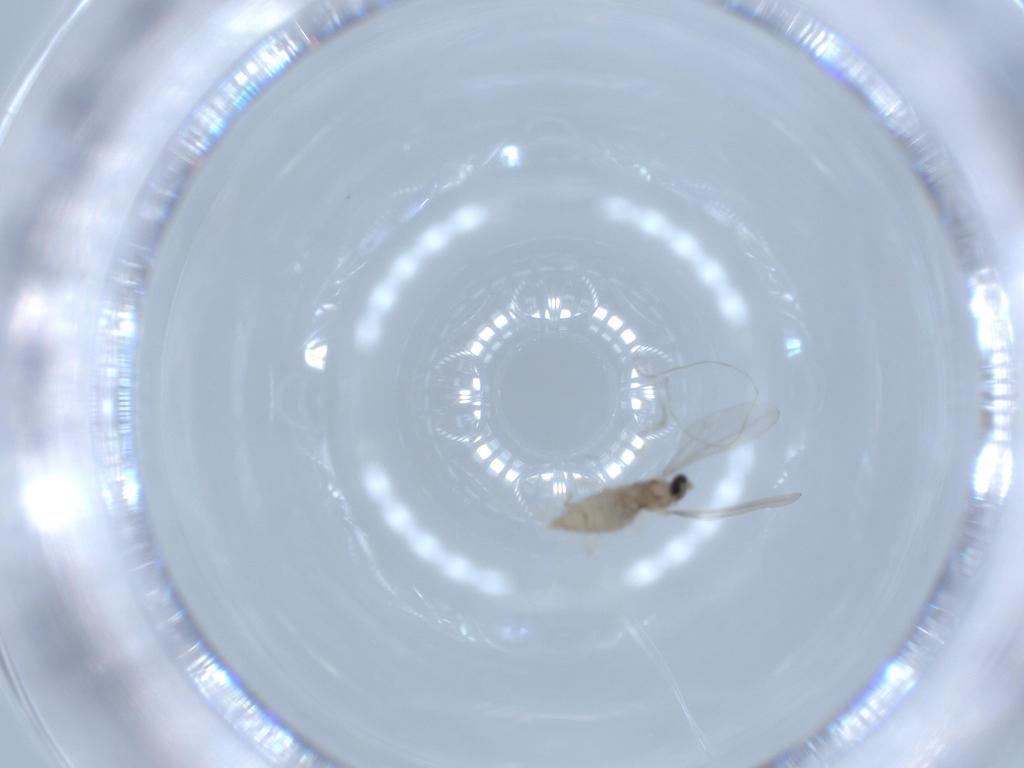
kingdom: Animalia
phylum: Arthropoda
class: Insecta
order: Diptera
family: Cecidomyiidae
